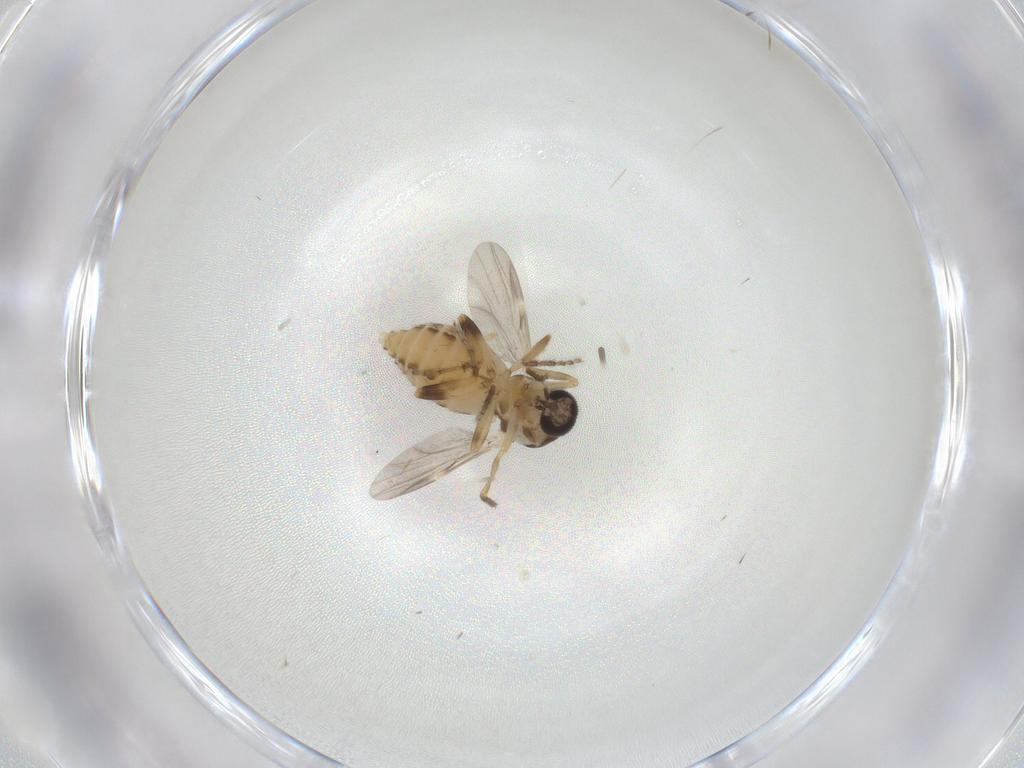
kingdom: Animalia
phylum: Arthropoda
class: Insecta
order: Diptera
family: Ceratopogonidae
